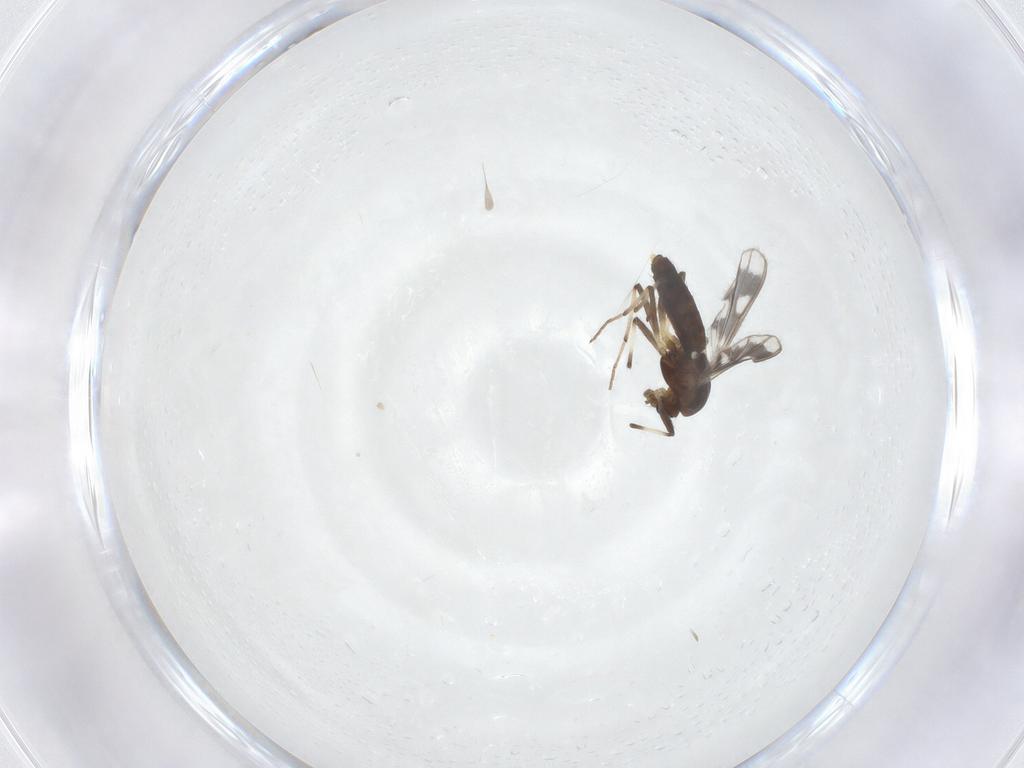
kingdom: Animalia
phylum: Arthropoda
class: Insecta
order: Diptera
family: Chironomidae
